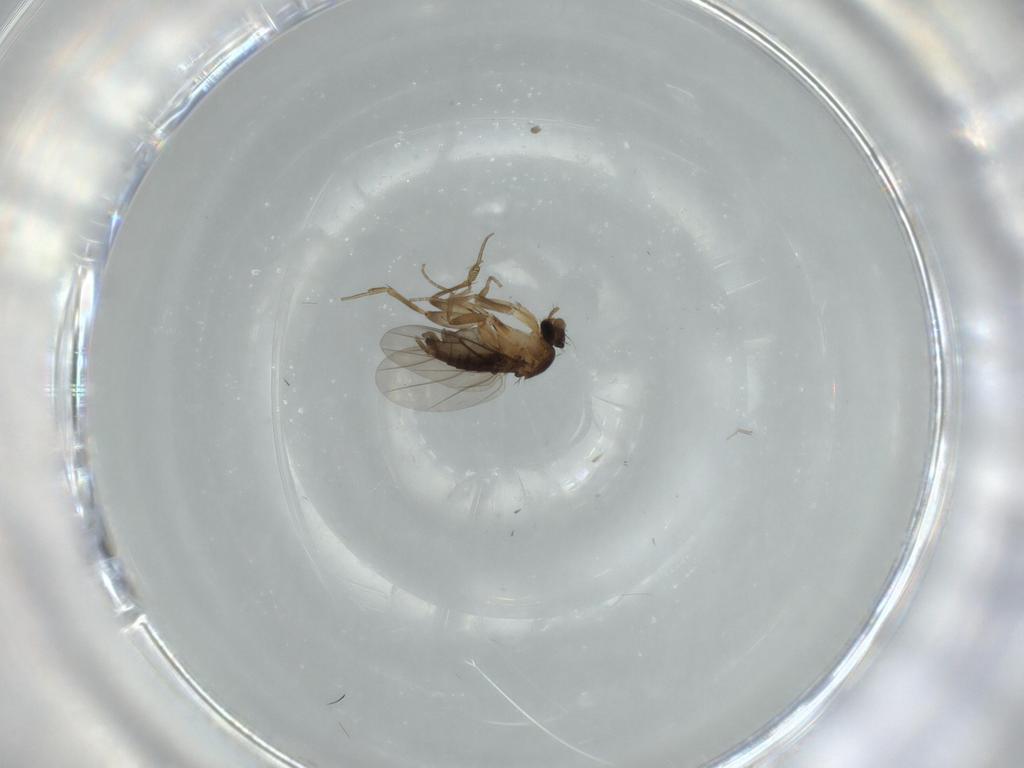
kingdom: Animalia
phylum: Arthropoda
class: Insecta
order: Diptera
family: Phoridae
